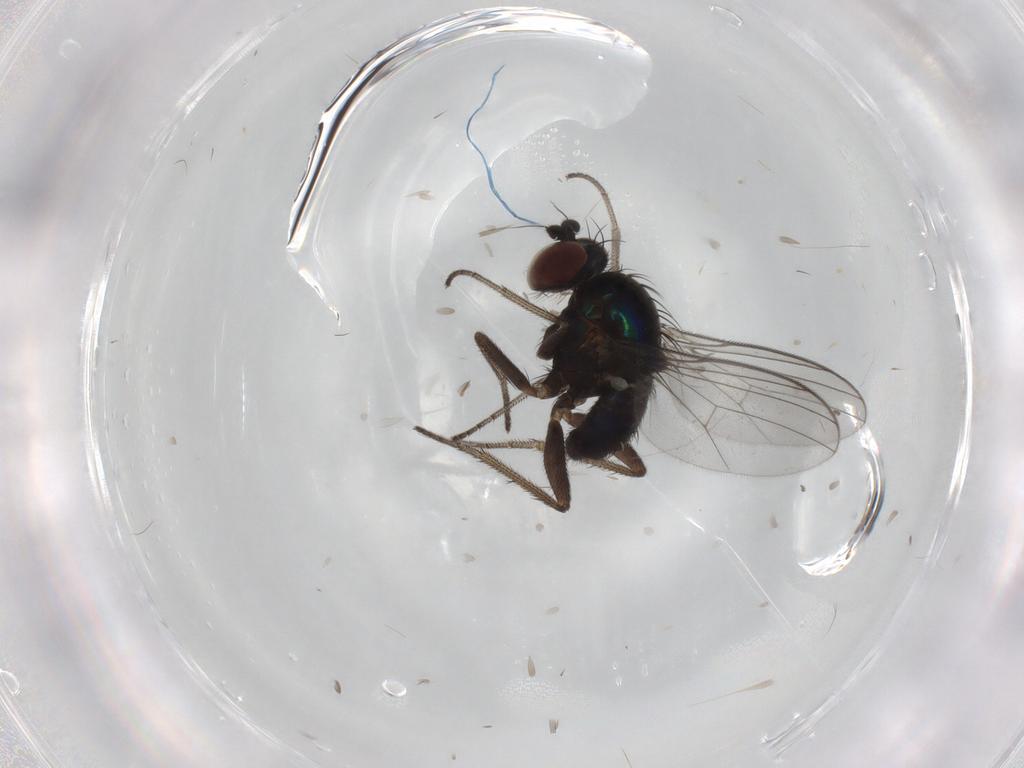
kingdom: Animalia
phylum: Arthropoda
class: Insecta
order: Diptera
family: Dolichopodidae
